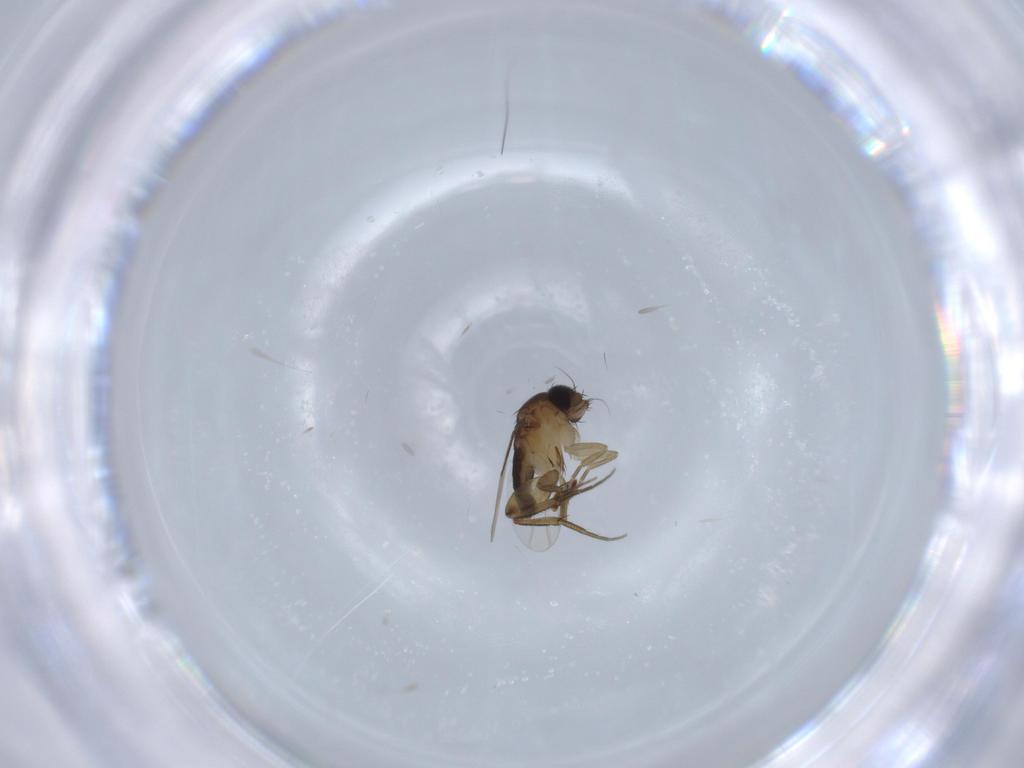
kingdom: Animalia
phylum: Arthropoda
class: Insecta
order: Diptera
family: Phoridae
